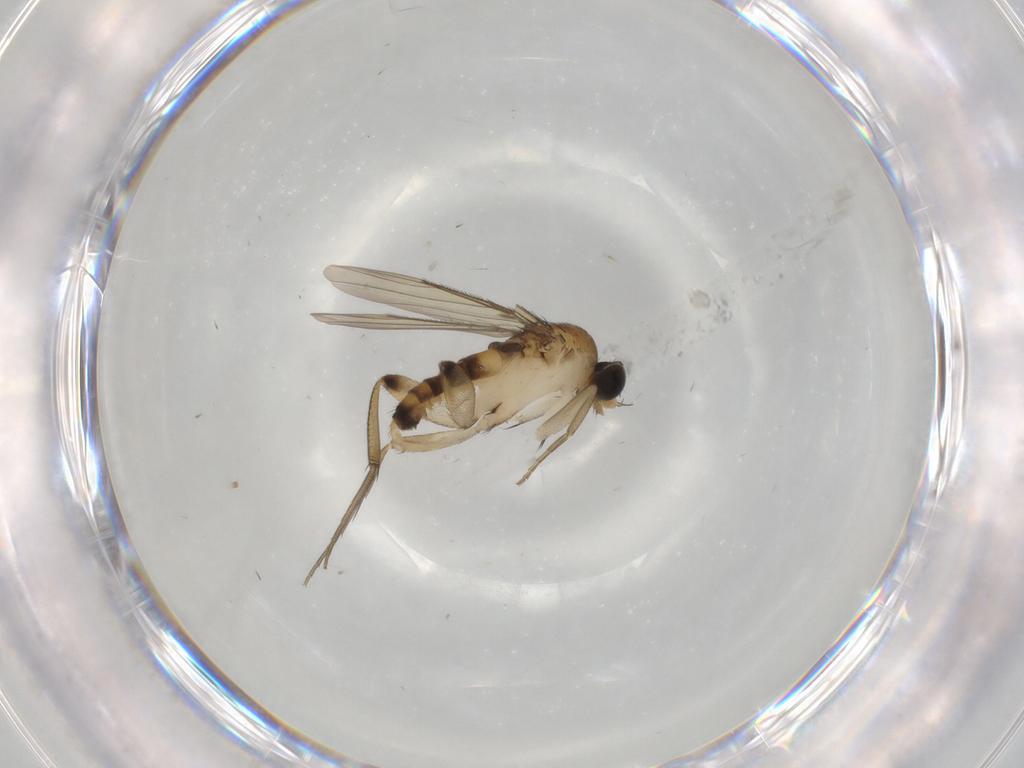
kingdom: Animalia
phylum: Arthropoda
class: Insecta
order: Diptera
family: Phoridae
